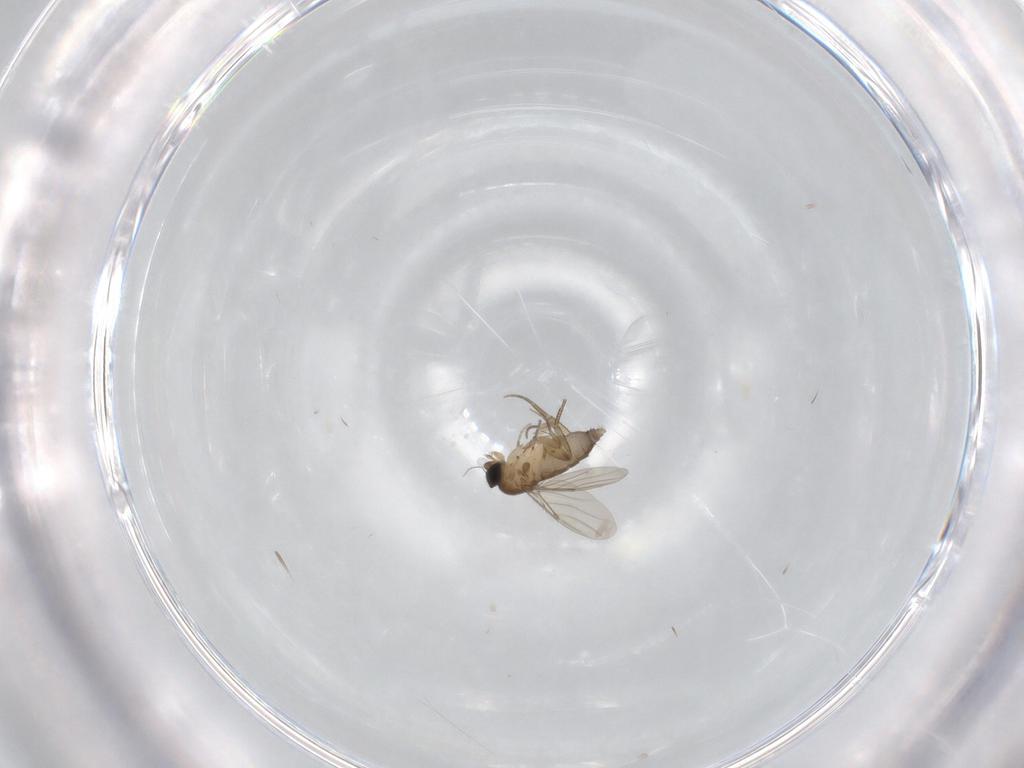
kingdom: Animalia
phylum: Arthropoda
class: Insecta
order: Diptera
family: Phoridae
